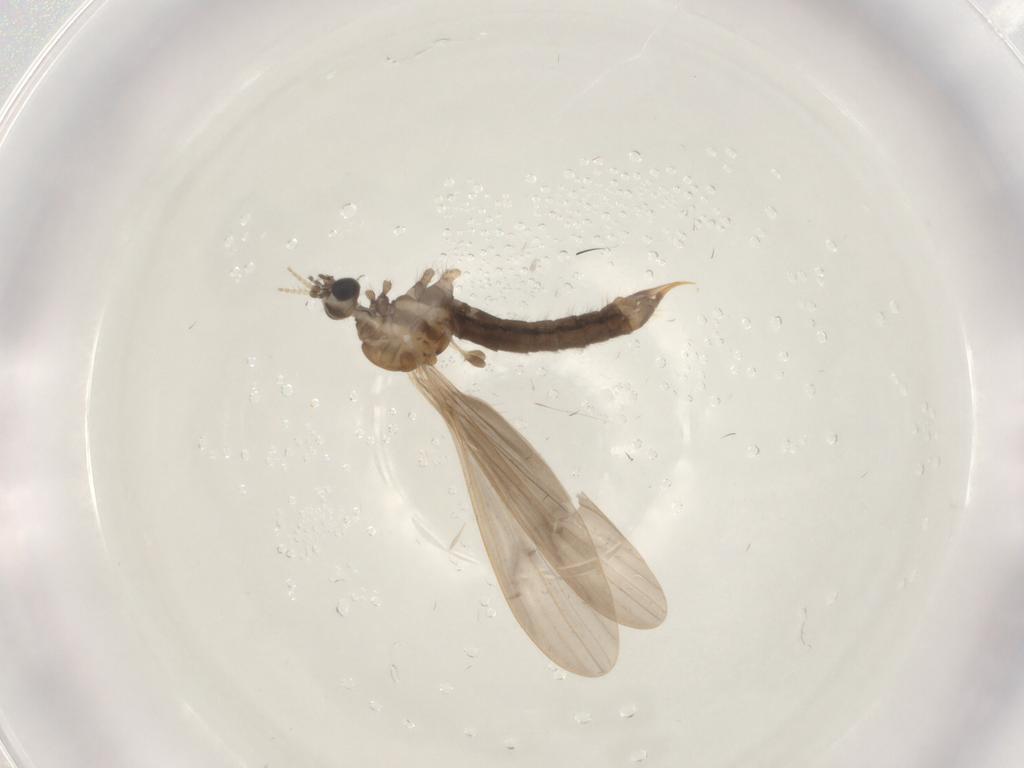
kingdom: Animalia
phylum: Arthropoda
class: Insecta
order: Diptera
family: Limoniidae
